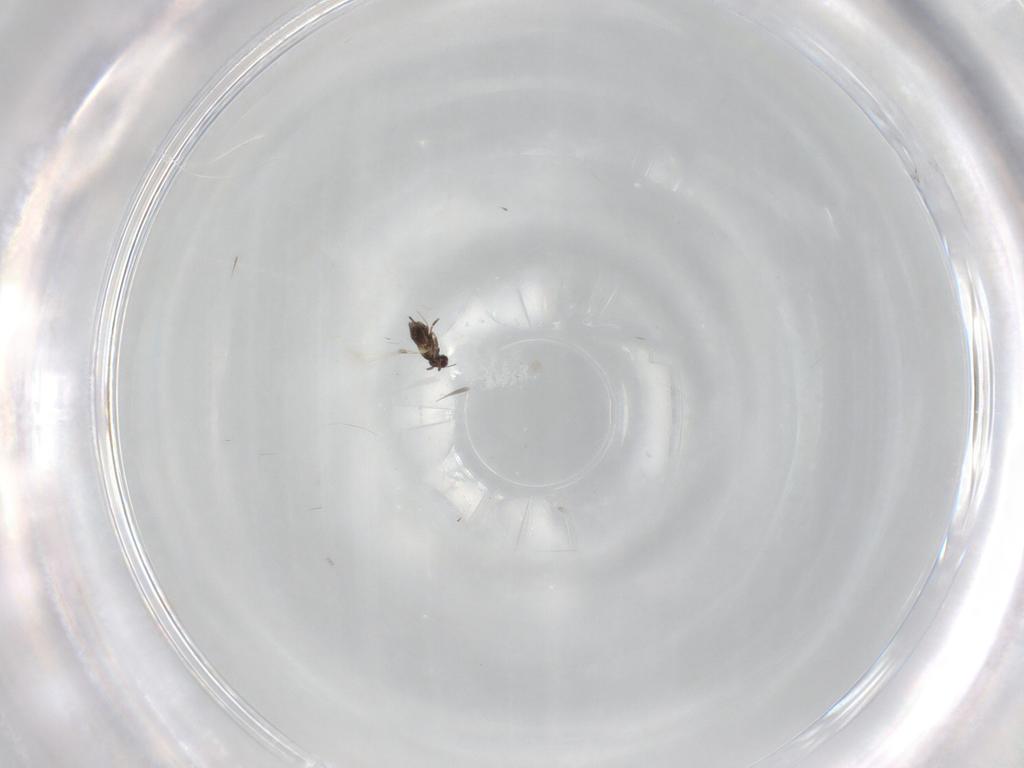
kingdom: Animalia
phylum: Arthropoda
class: Insecta
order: Hymenoptera
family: Mymaridae
